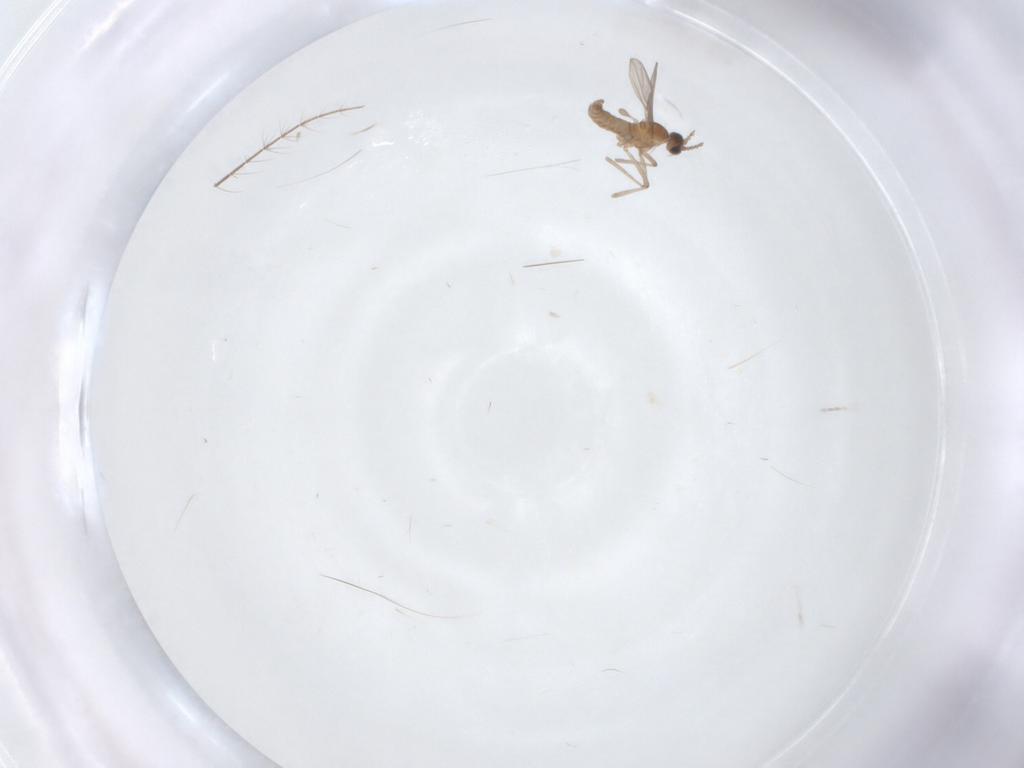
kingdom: Animalia
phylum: Arthropoda
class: Insecta
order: Diptera
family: Cecidomyiidae
